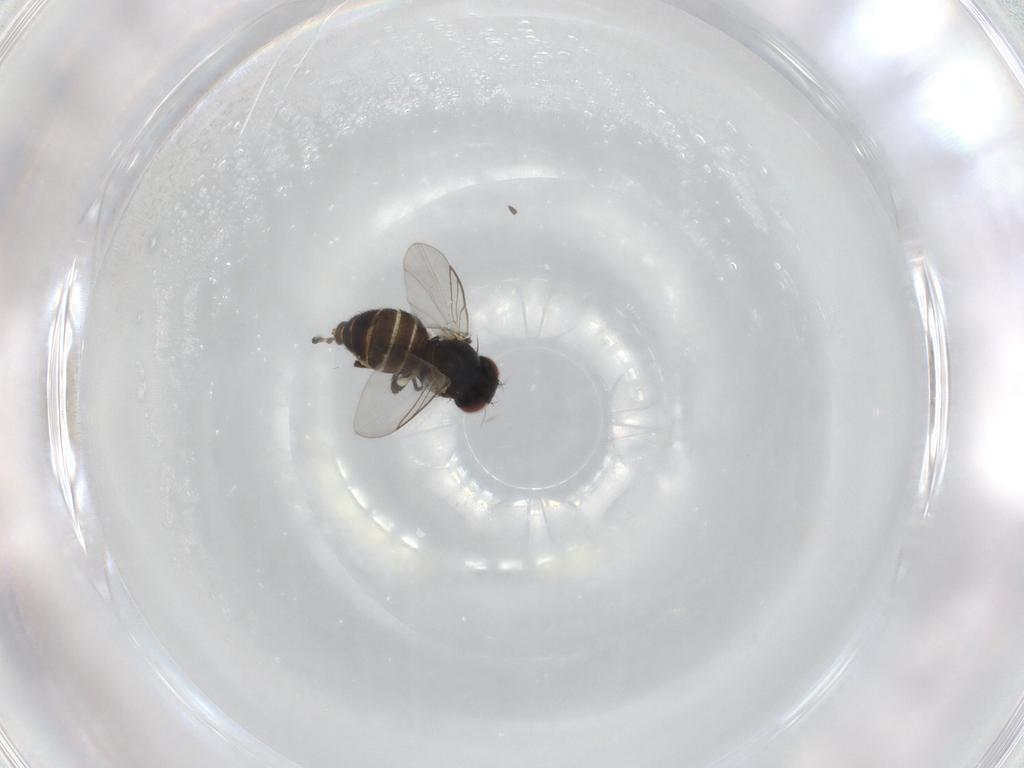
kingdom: Animalia
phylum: Arthropoda
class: Insecta
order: Diptera
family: Agromyzidae
